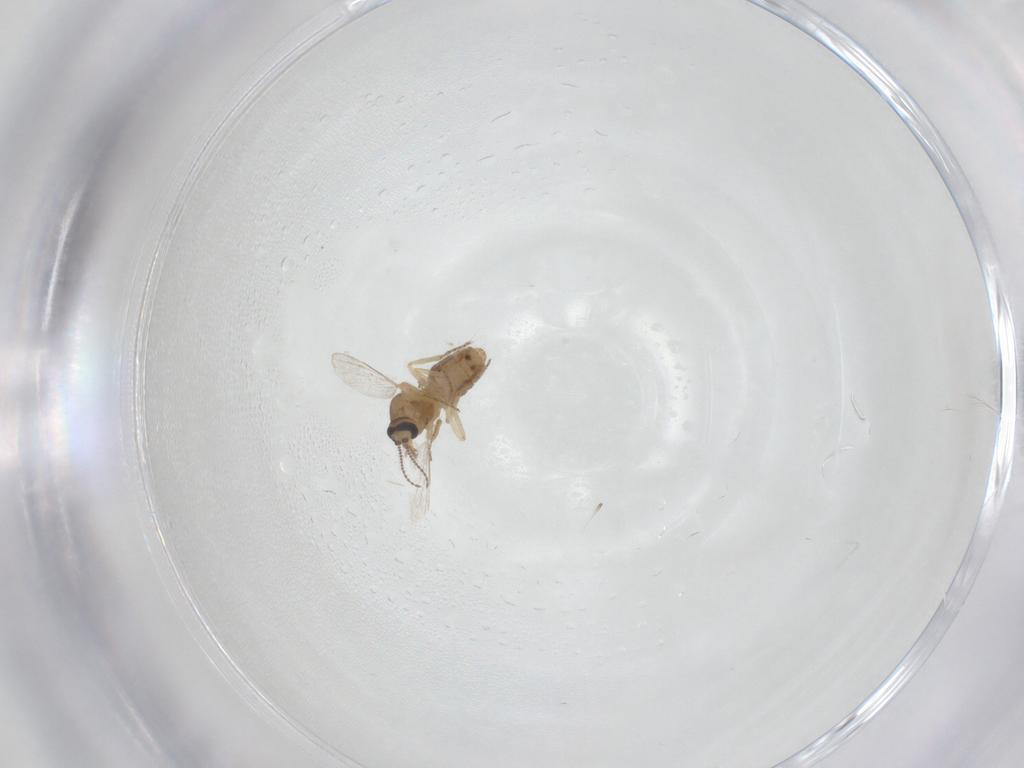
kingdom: Animalia
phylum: Arthropoda
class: Insecta
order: Diptera
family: Ceratopogonidae
